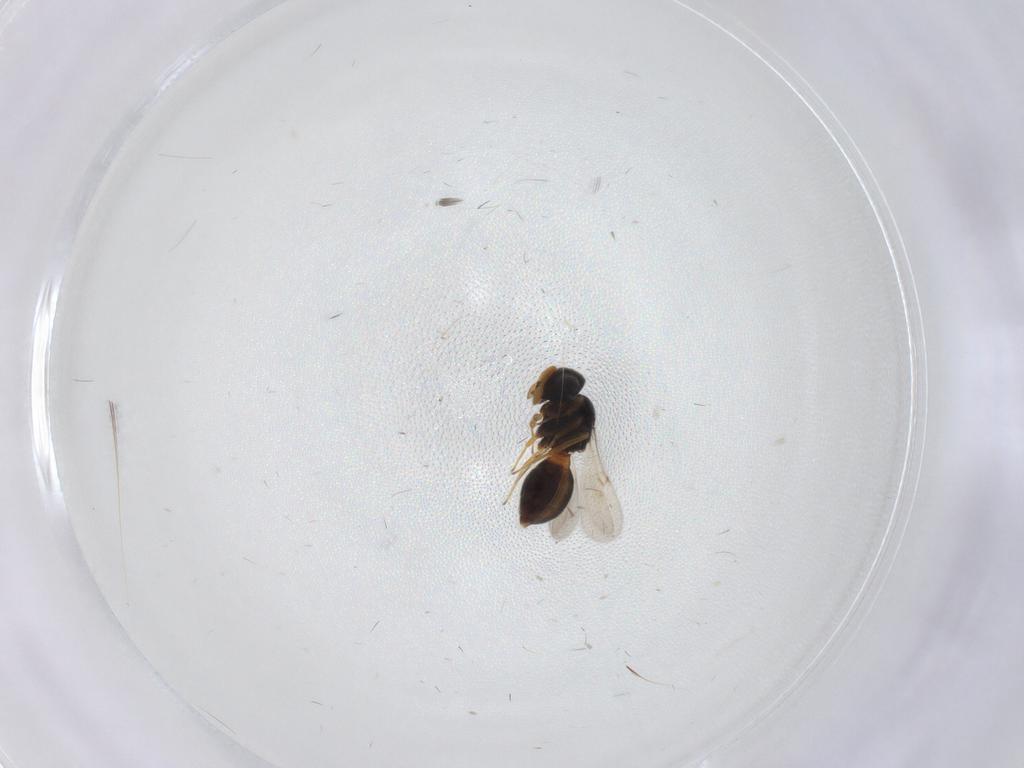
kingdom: Animalia
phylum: Arthropoda
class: Insecta
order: Hymenoptera
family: Scelionidae
